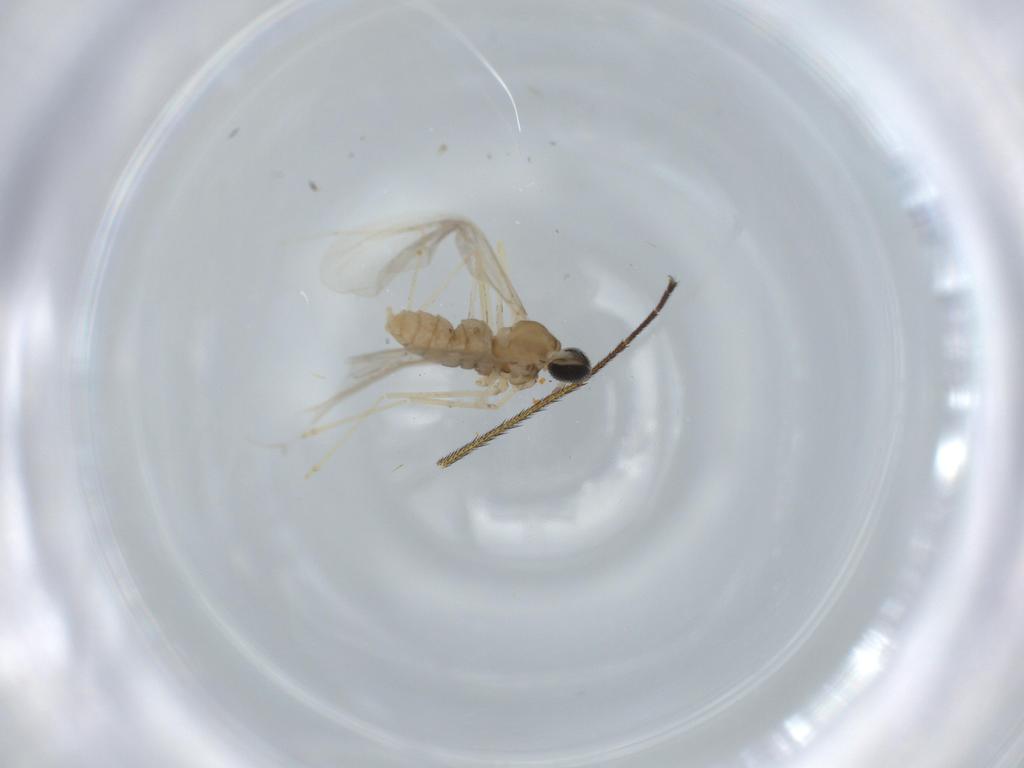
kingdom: Animalia
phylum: Arthropoda
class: Insecta
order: Diptera
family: Cecidomyiidae
